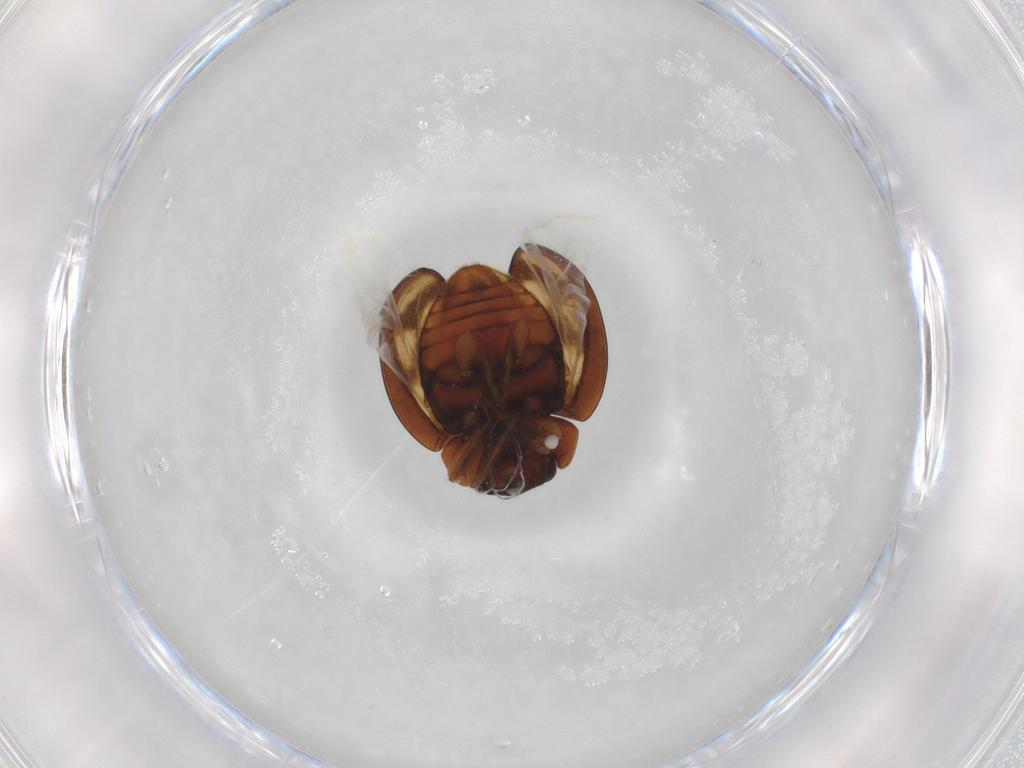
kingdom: Animalia
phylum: Arthropoda
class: Insecta
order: Coleoptera
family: Coccinellidae
